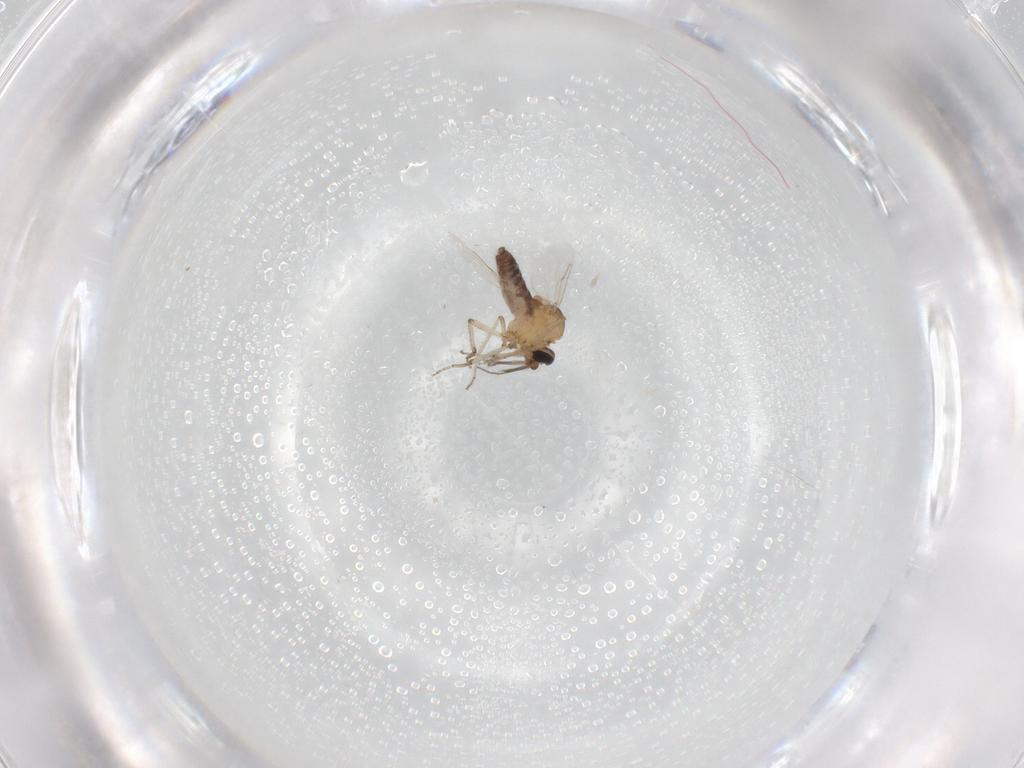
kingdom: Animalia
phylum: Arthropoda
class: Insecta
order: Diptera
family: Ceratopogonidae
